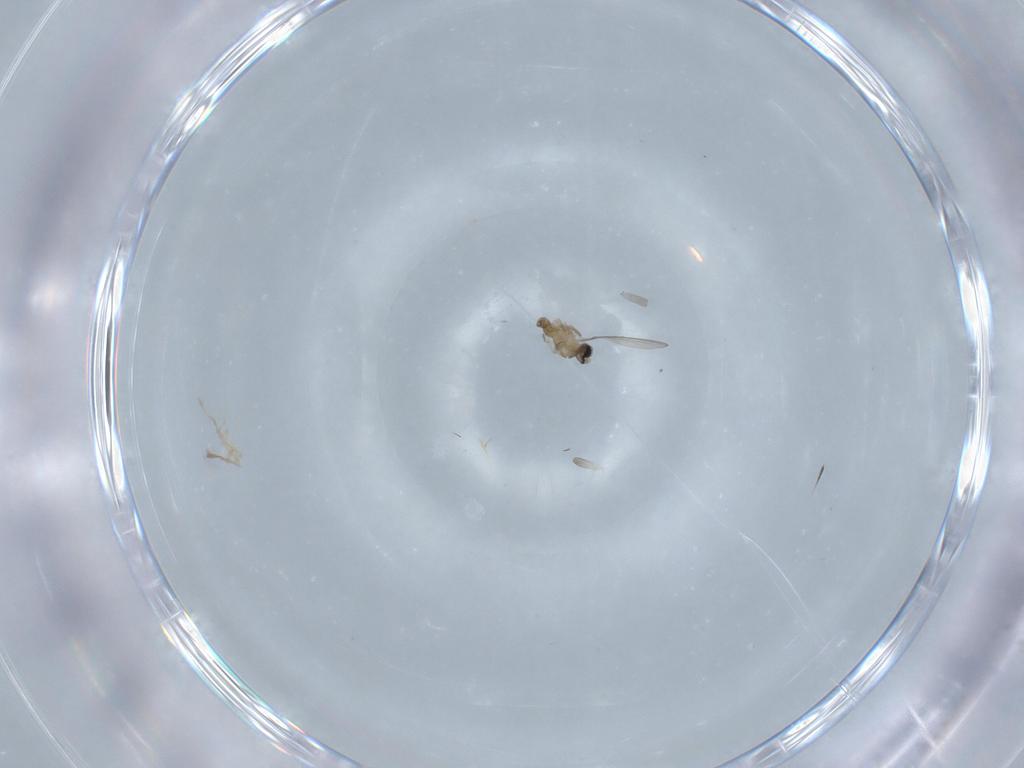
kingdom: Animalia
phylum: Arthropoda
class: Insecta
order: Diptera
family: Cecidomyiidae
